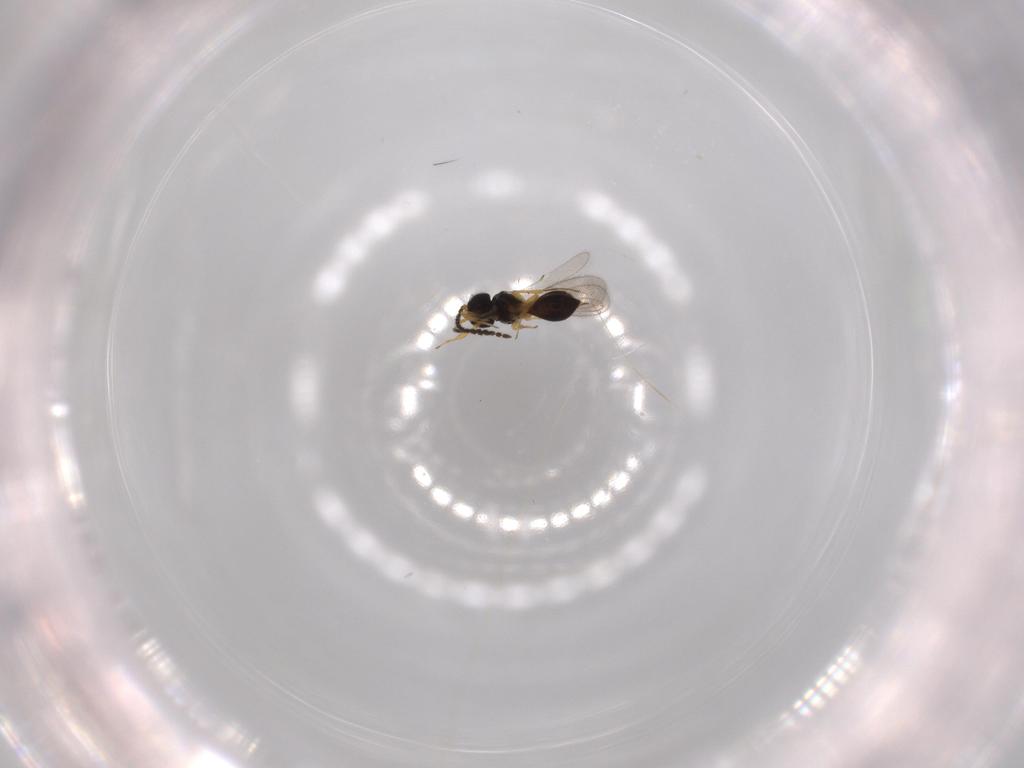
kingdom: Animalia
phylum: Arthropoda
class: Insecta
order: Hymenoptera
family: Scelionidae
